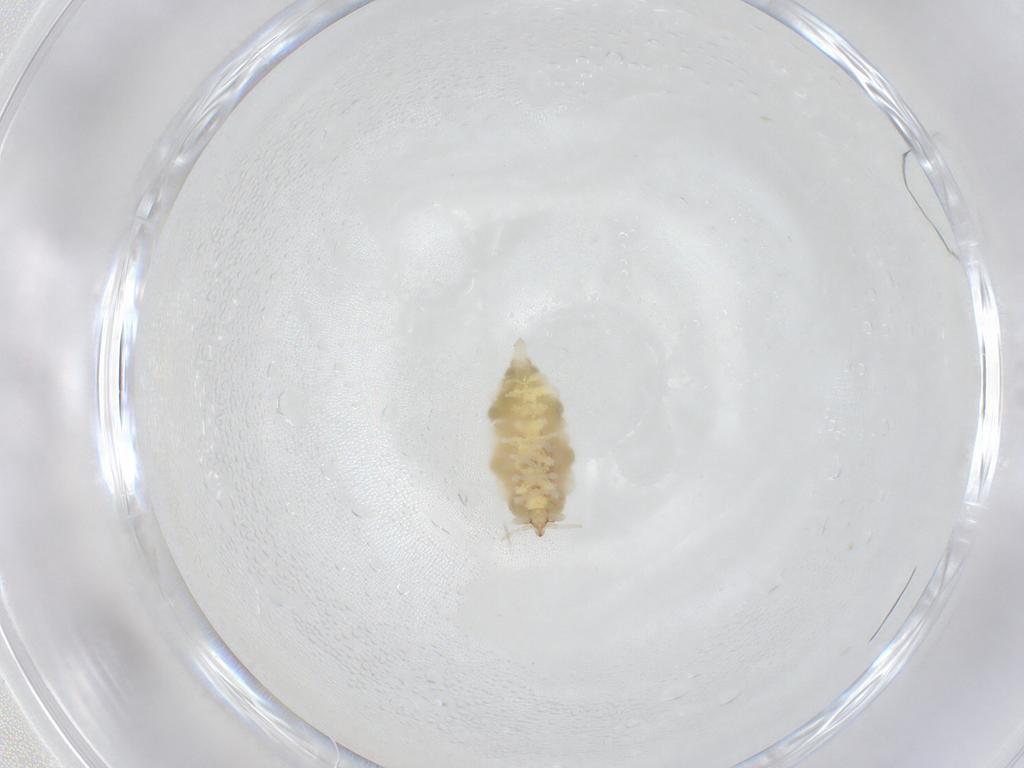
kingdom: Animalia
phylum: Arthropoda
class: Insecta
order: Neuroptera
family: Coniopterygidae
